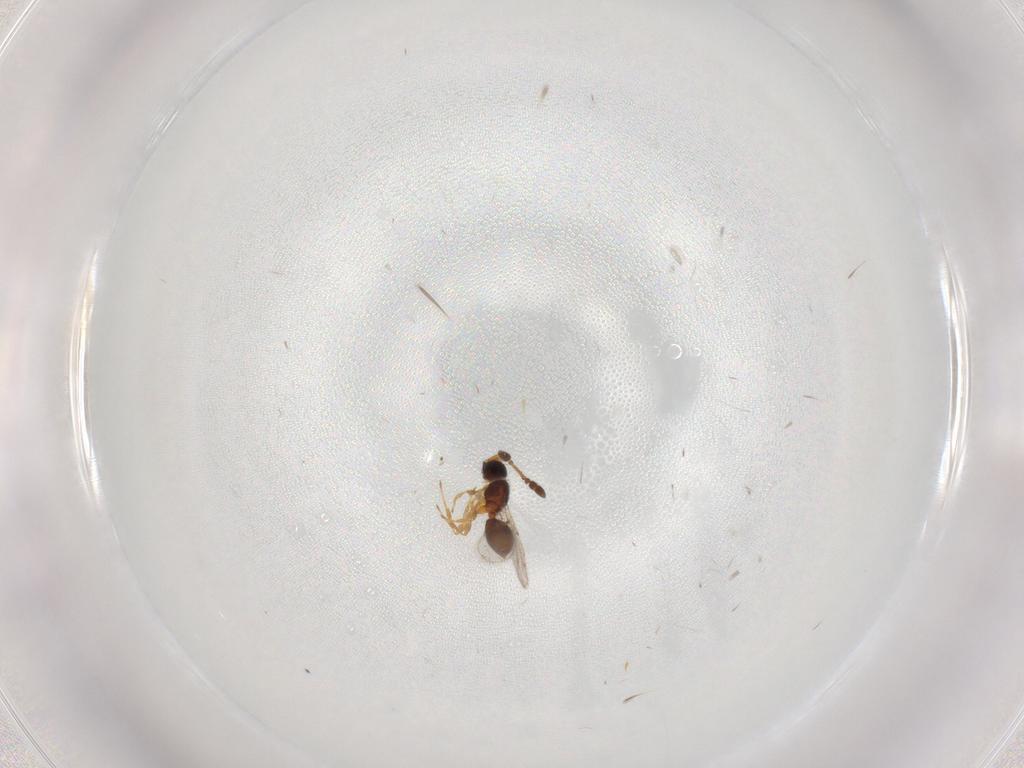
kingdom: Animalia
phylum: Arthropoda
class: Insecta
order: Hymenoptera
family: Diapriidae
